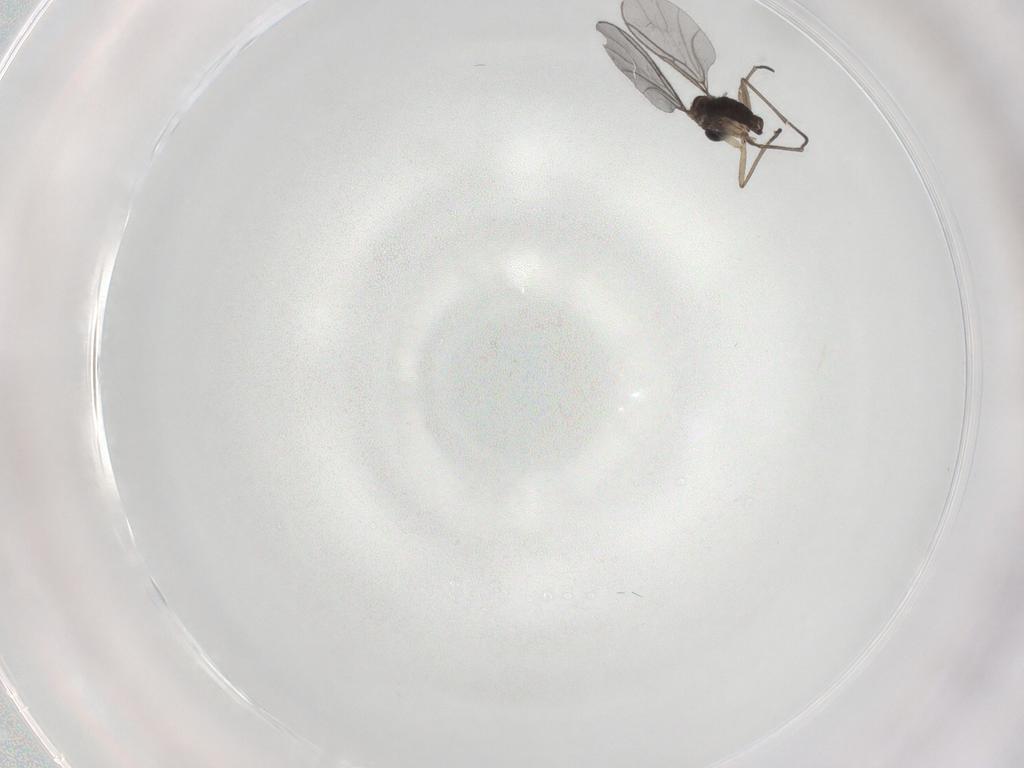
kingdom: Animalia
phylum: Arthropoda
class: Insecta
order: Diptera
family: Sciaridae
